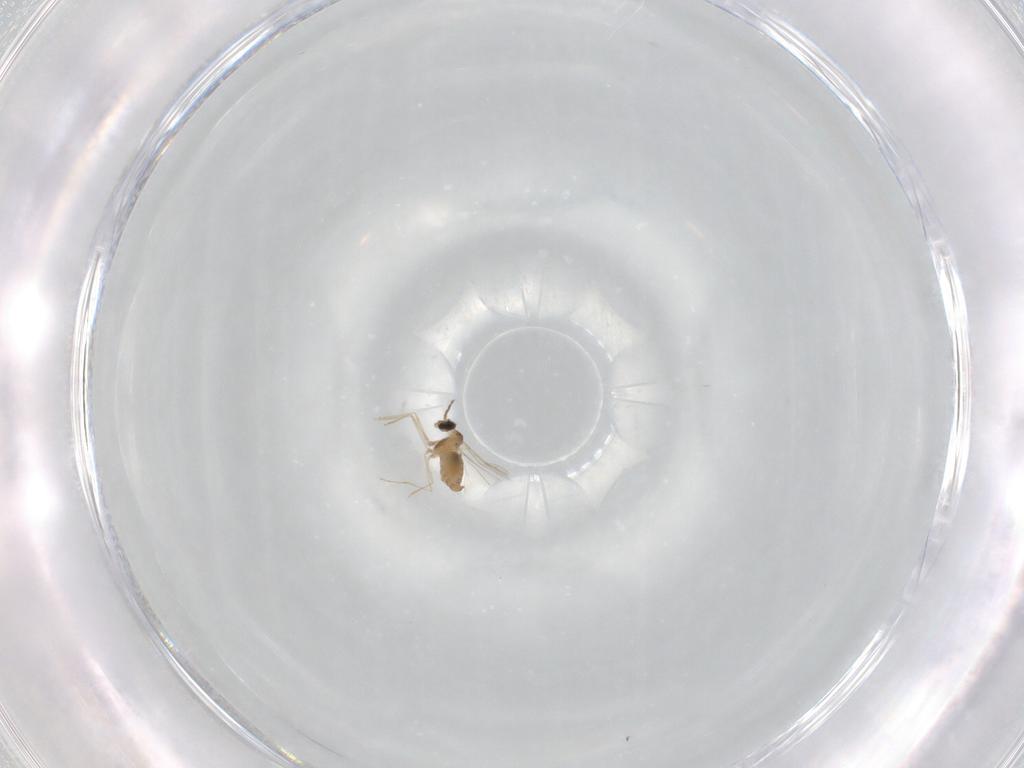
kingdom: Animalia
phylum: Arthropoda
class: Insecta
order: Diptera
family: Cecidomyiidae
